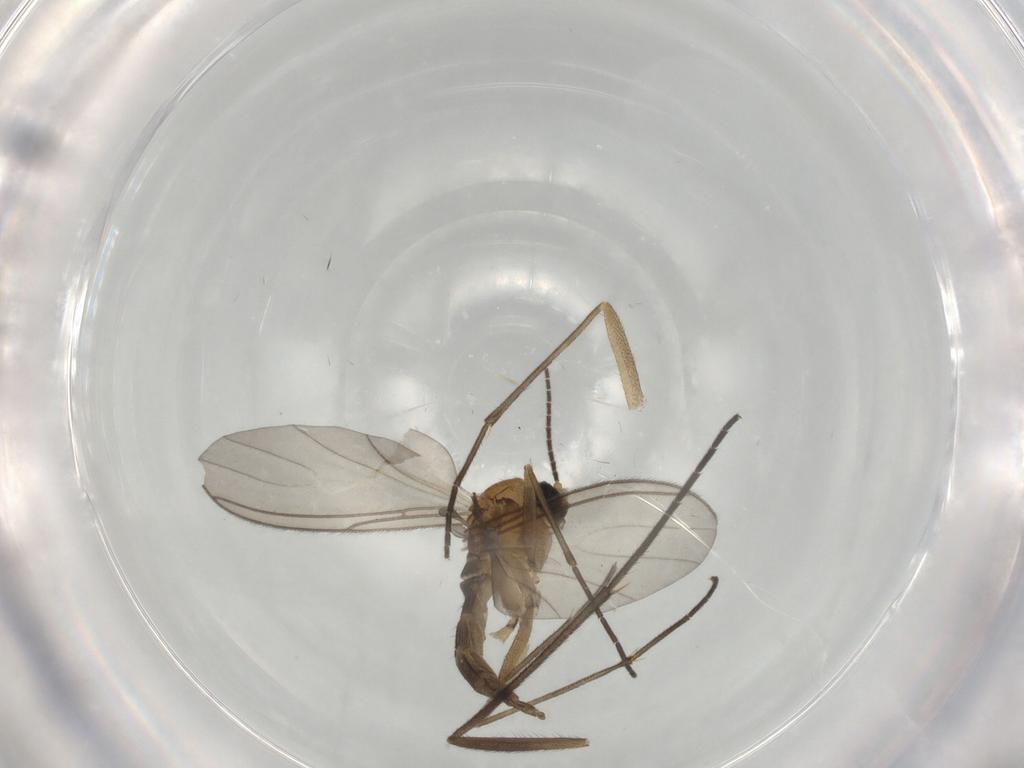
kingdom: Animalia
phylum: Arthropoda
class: Insecta
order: Diptera
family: Sciaridae
